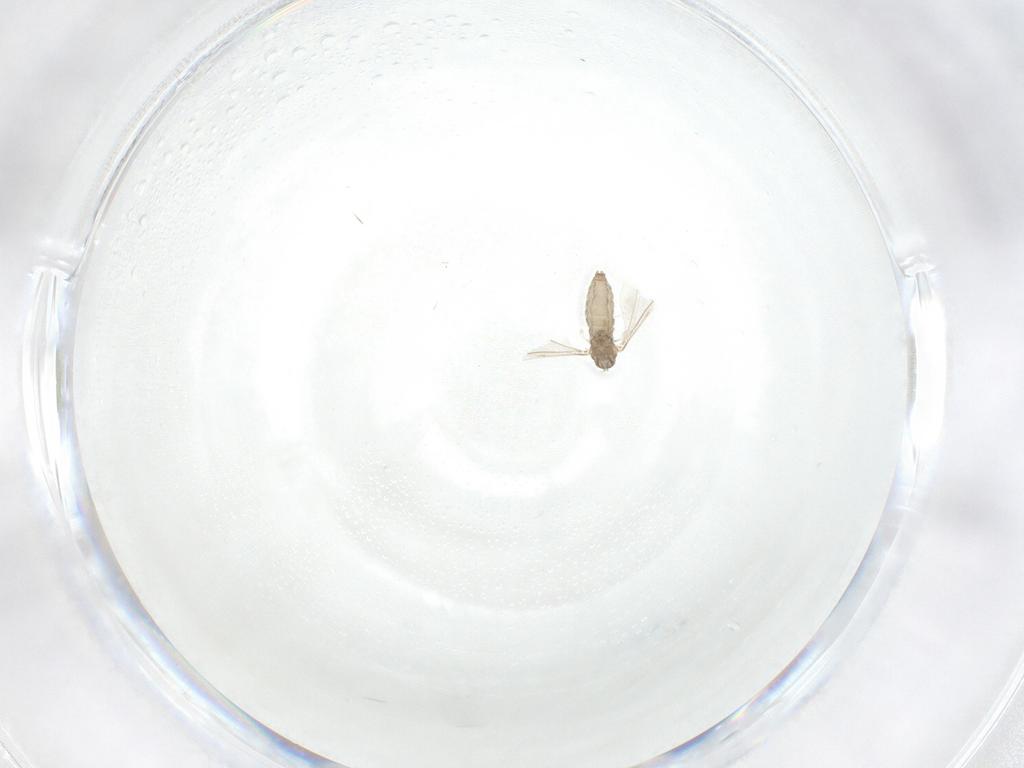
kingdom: Animalia
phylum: Arthropoda
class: Insecta
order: Diptera
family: Cecidomyiidae
